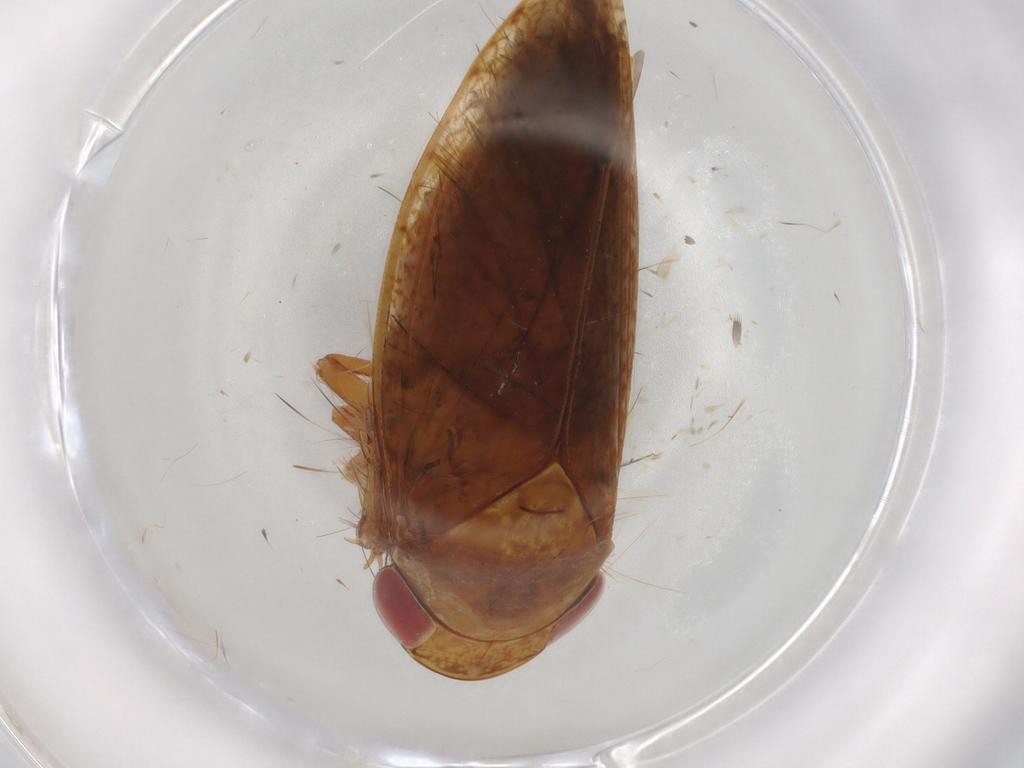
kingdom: Animalia
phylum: Arthropoda
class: Insecta
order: Hemiptera
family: Cicadellidae
